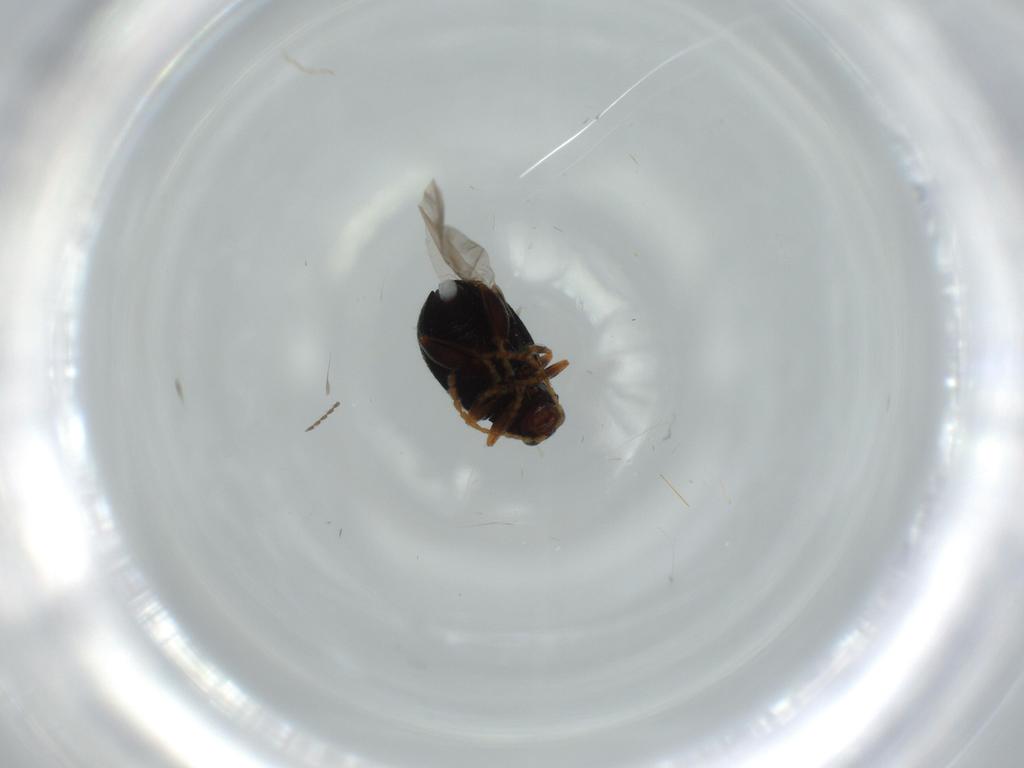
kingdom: Animalia
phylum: Arthropoda
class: Insecta
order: Coleoptera
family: Chrysomelidae
